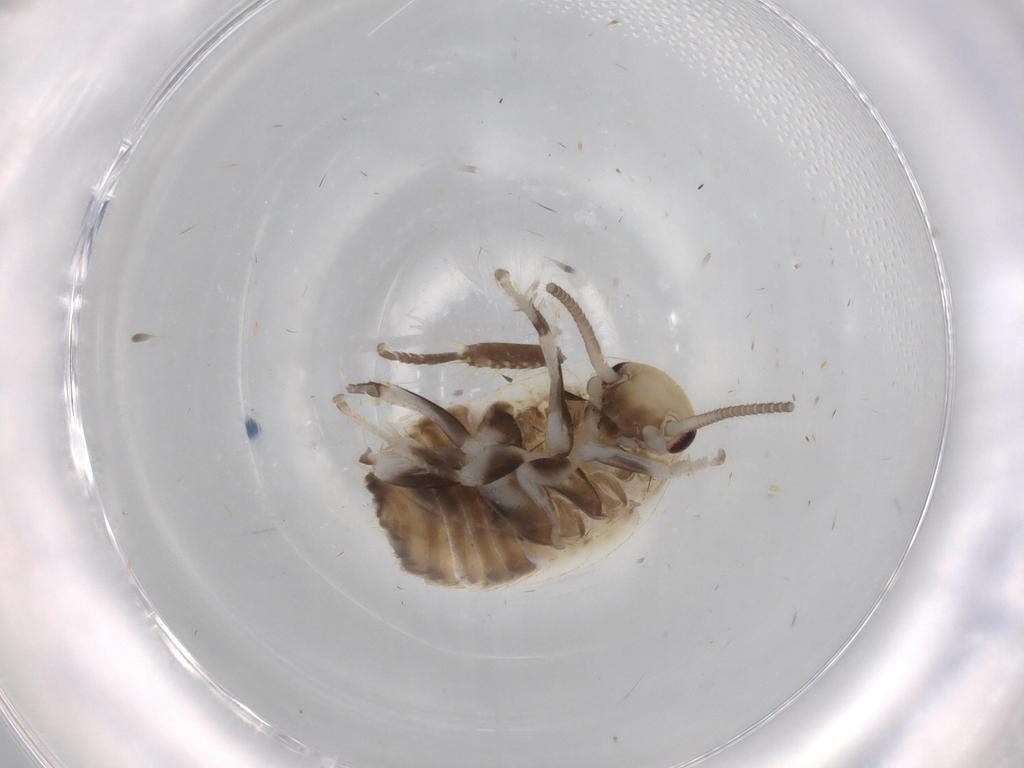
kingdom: Animalia
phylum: Arthropoda
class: Insecta
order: Blattodea
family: Ectobiidae
